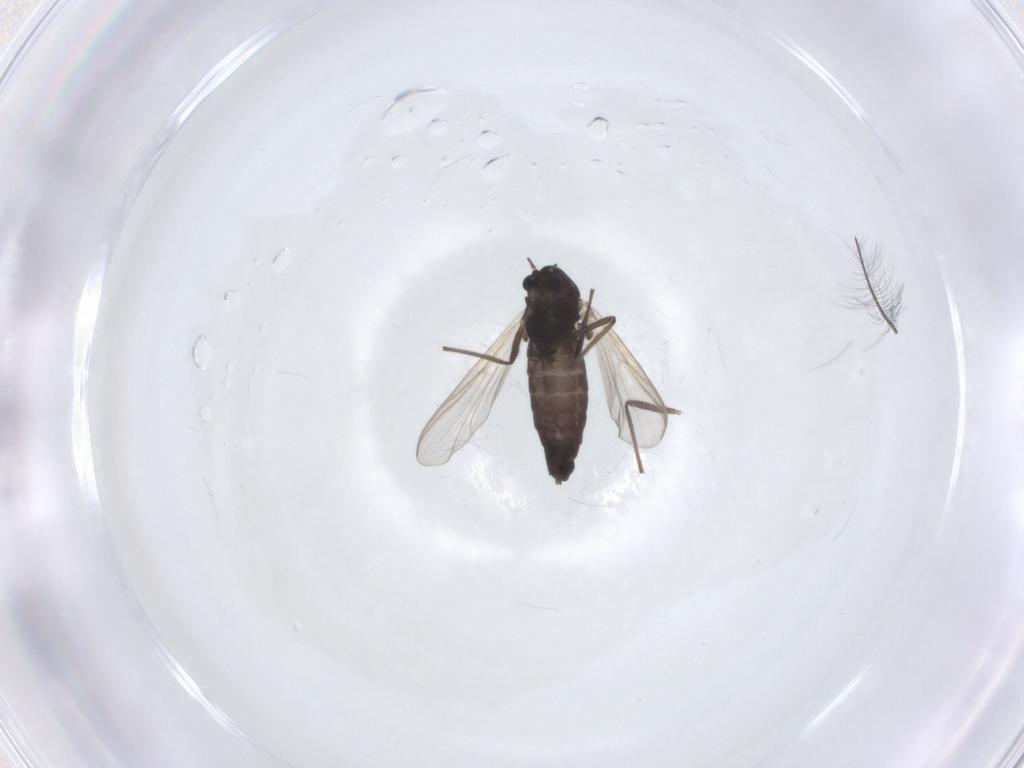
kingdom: Animalia
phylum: Arthropoda
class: Insecta
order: Diptera
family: Chironomidae
